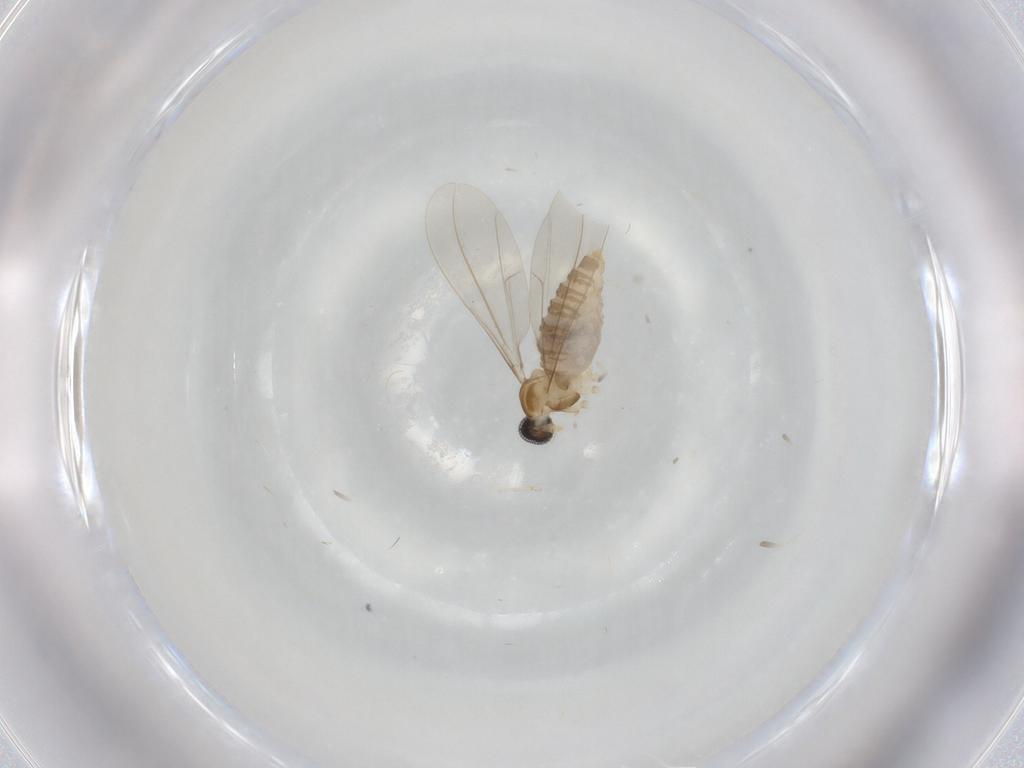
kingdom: Animalia
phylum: Arthropoda
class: Insecta
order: Diptera
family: Cecidomyiidae
